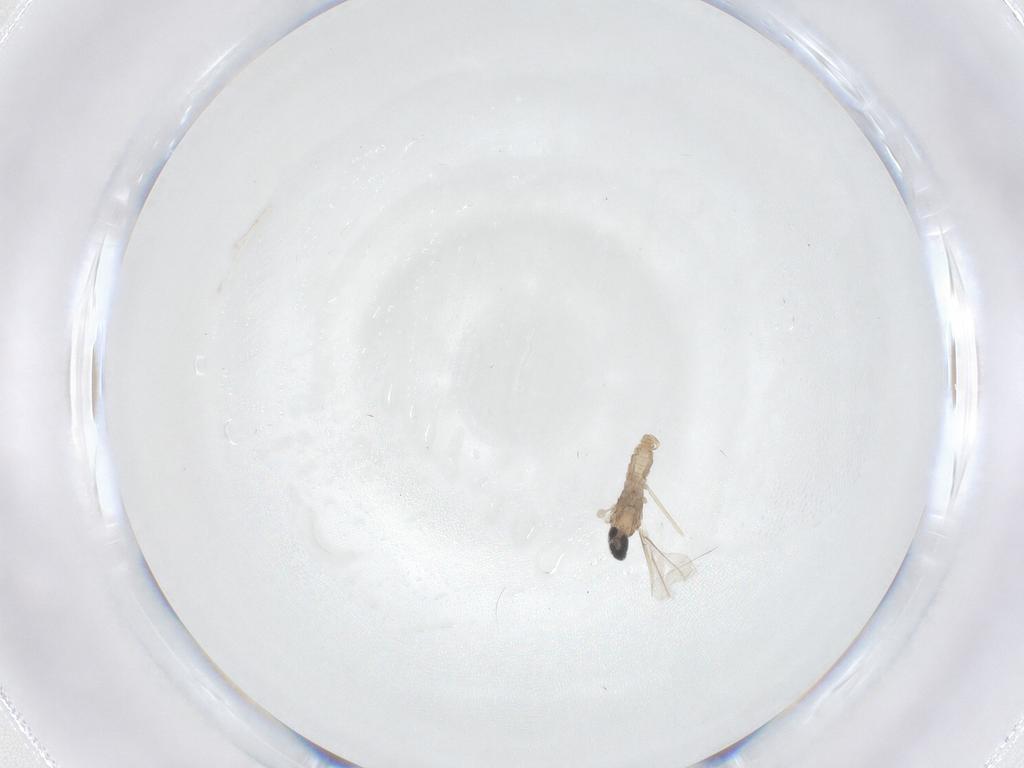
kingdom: Animalia
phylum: Arthropoda
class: Insecta
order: Diptera
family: Cecidomyiidae
